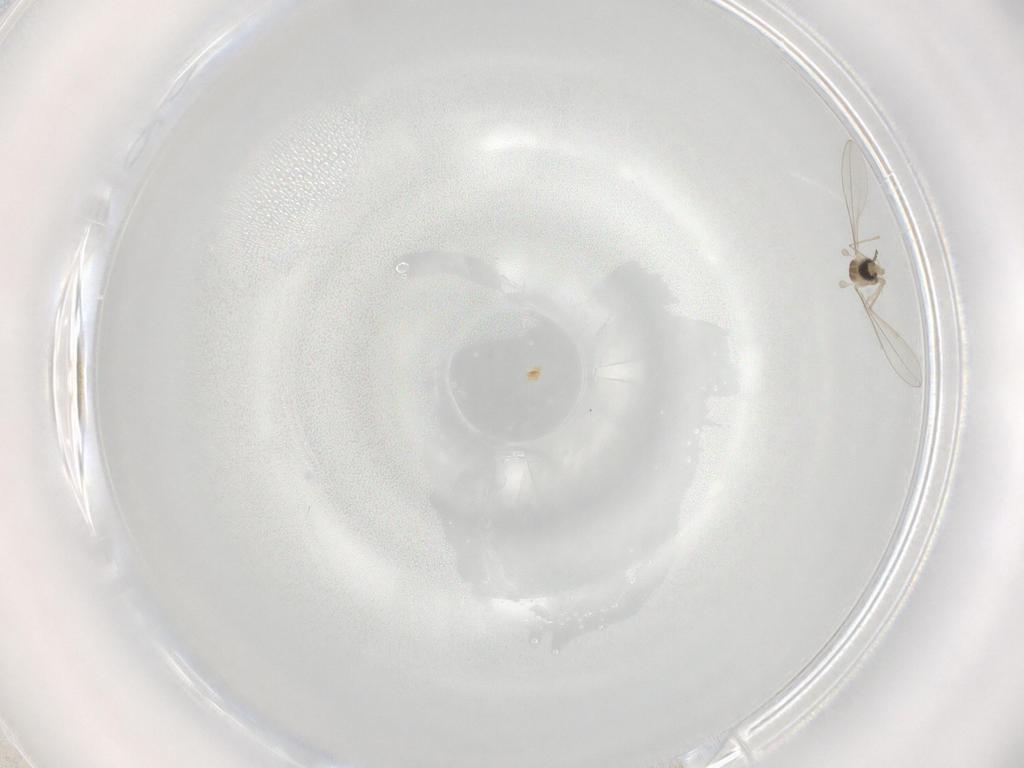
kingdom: Animalia
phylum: Arthropoda
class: Insecta
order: Diptera
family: Cecidomyiidae
